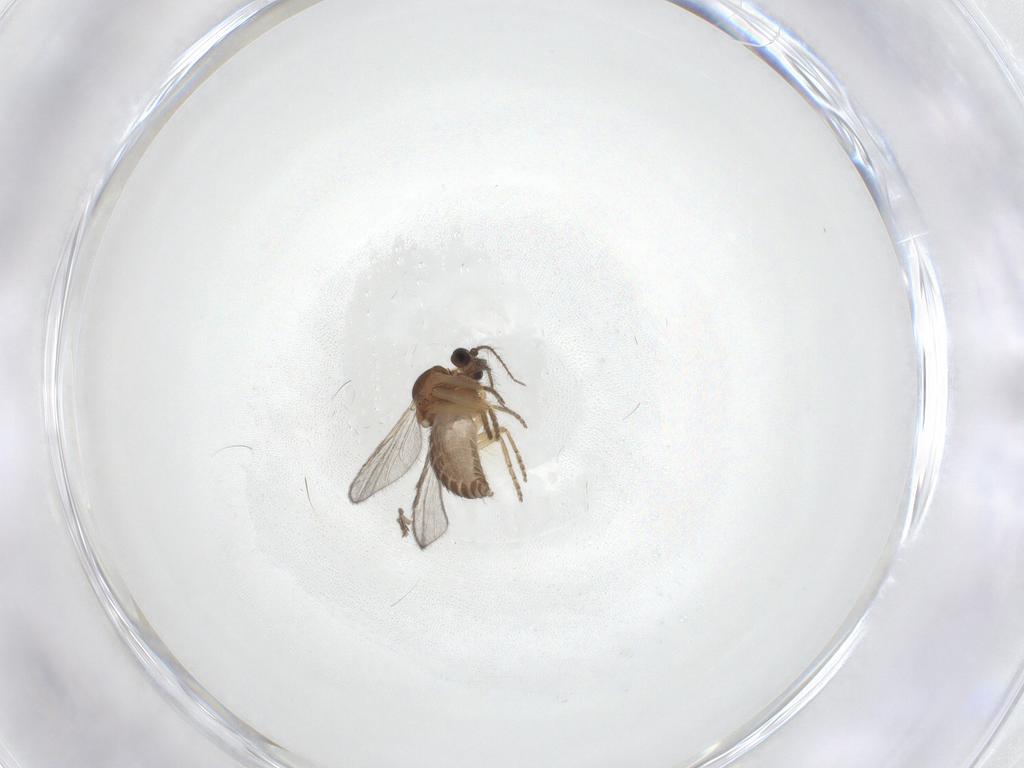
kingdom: Animalia
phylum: Arthropoda
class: Insecta
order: Diptera
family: Ceratopogonidae
